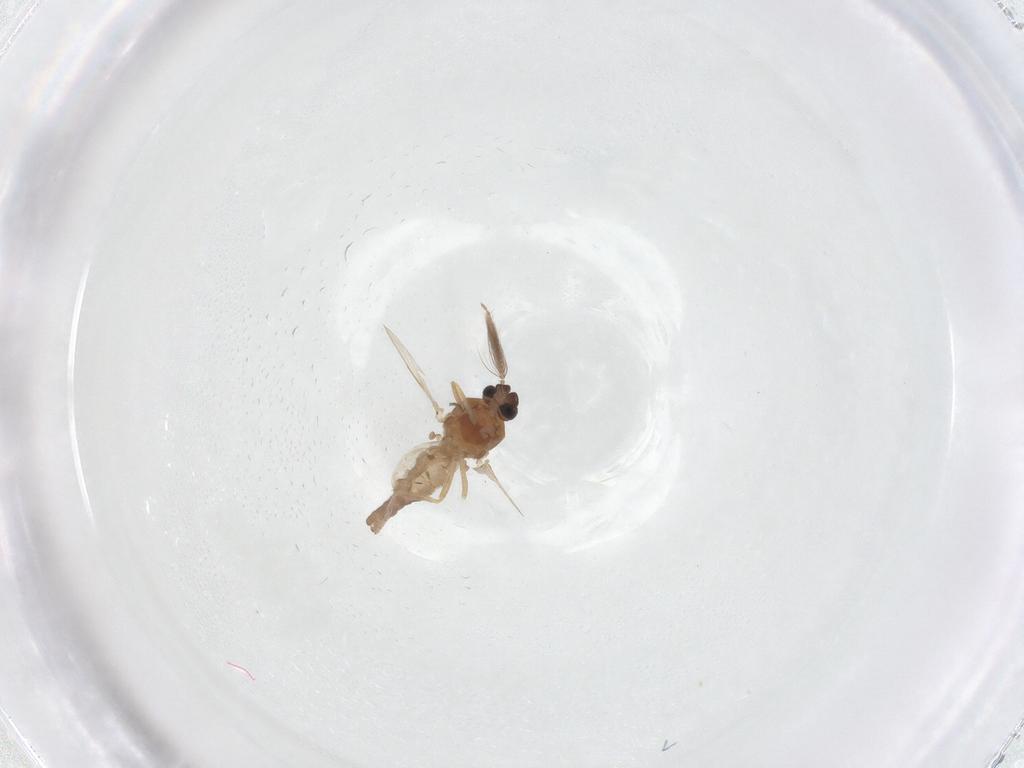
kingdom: Animalia
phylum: Arthropoda
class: Insecta
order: Diptera
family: Ceratopogonidae
